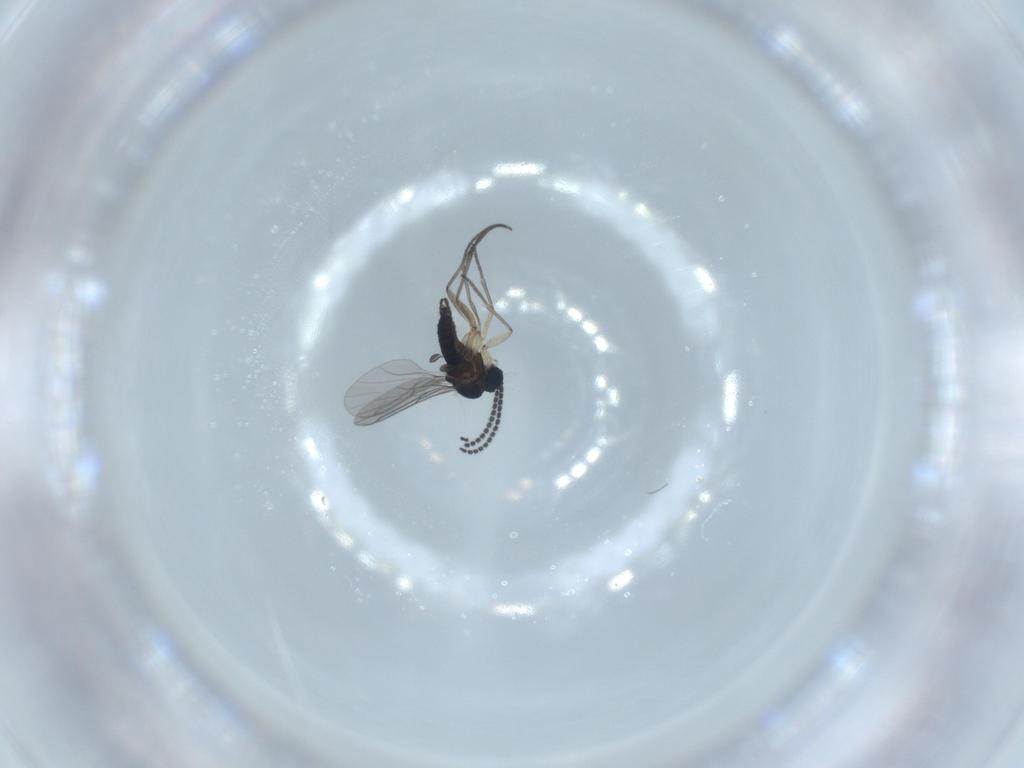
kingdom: Animalia
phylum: Arthropoda
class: Insecta
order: Diptera
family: Sciaridae
